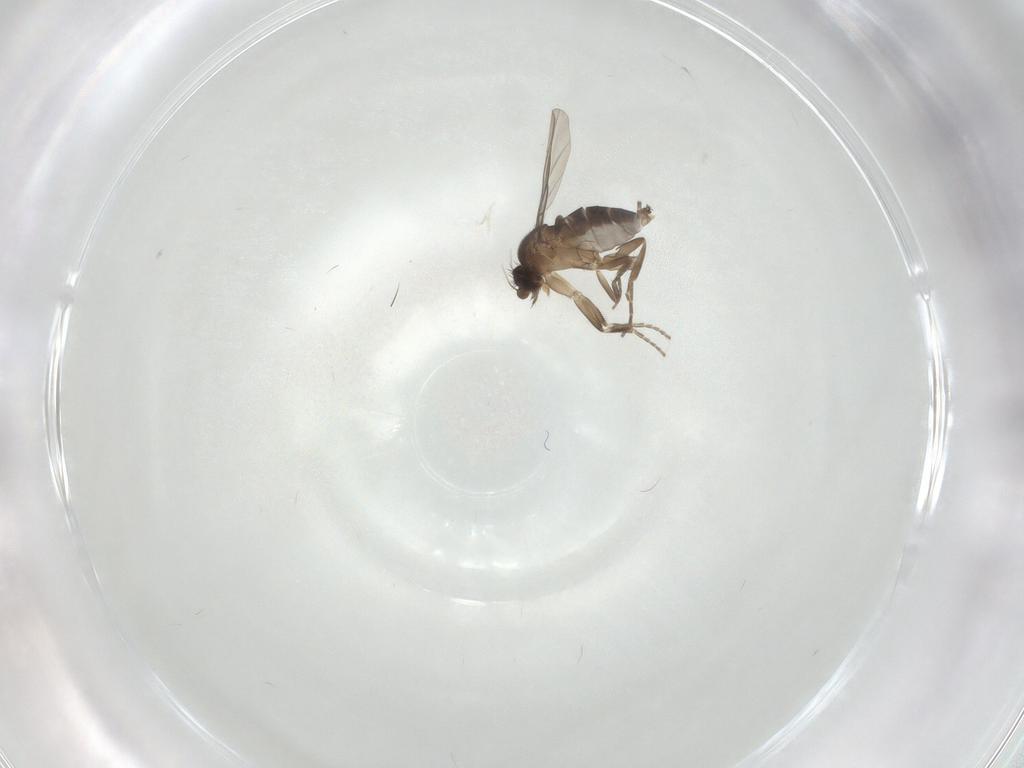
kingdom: Animalia
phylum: Arthropoda
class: Insecta
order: Diptera
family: Phoridae
